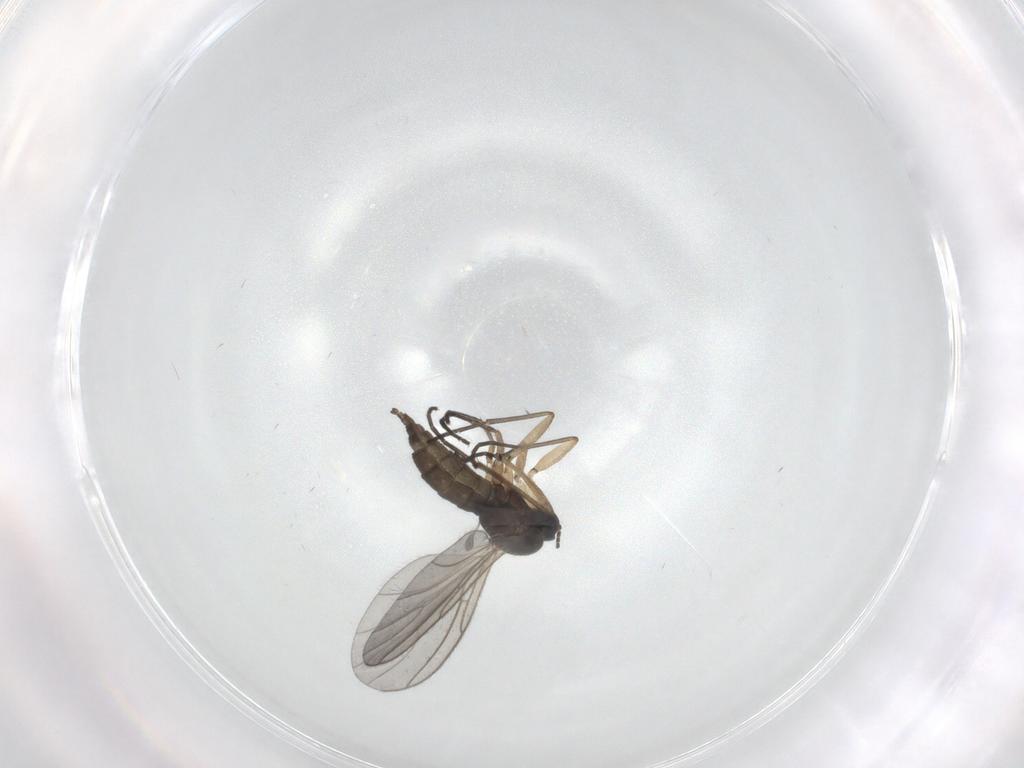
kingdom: Animalia
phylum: Arthropoda
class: Insecta
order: Diptera
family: Sciaridae
